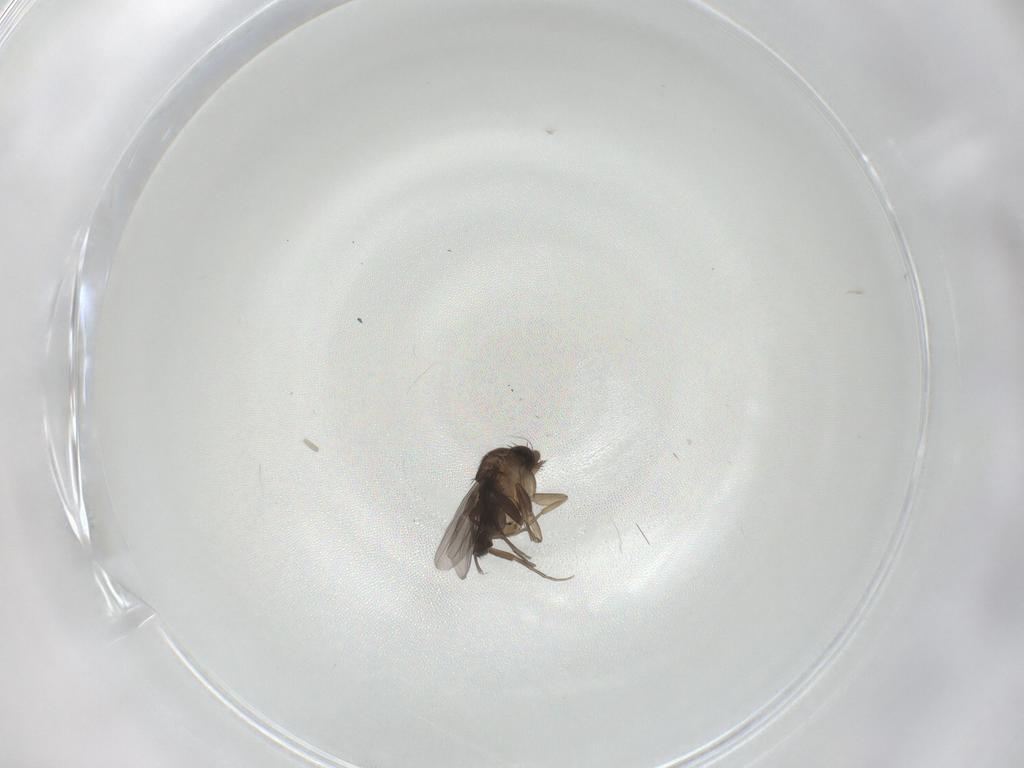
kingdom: Animalia
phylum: Arthropoda
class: Insecta
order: Diptera
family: Phoridae
